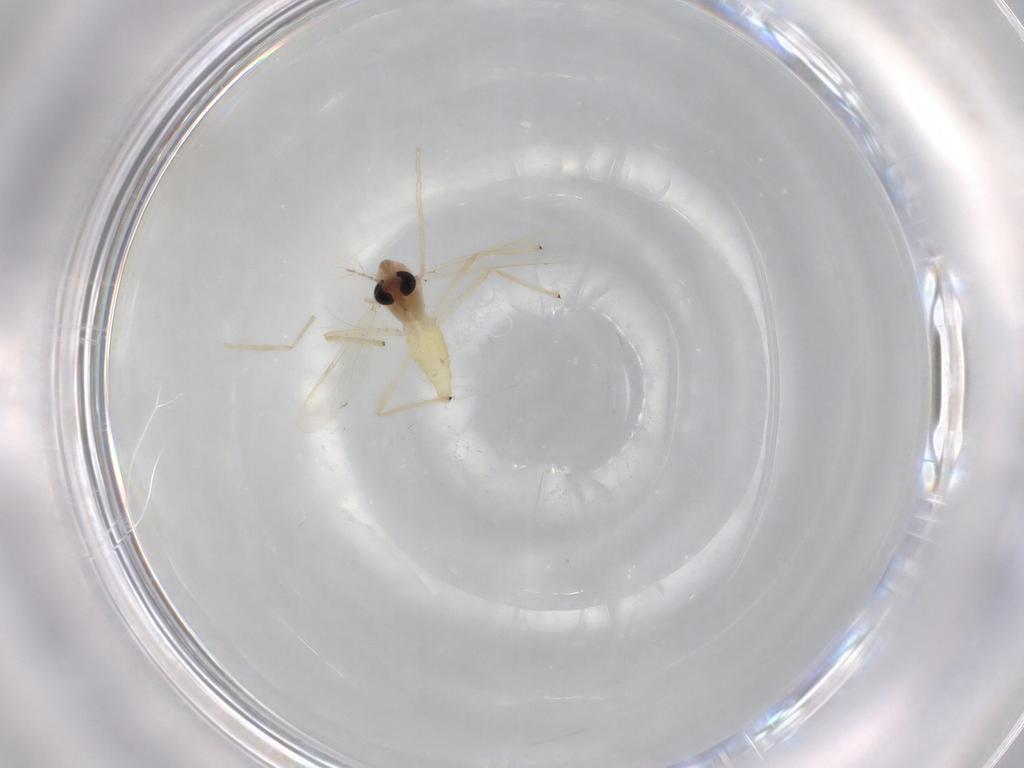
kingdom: Animalia
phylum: Arthropoda
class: Insecta
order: Diptera
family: Chironomidae
